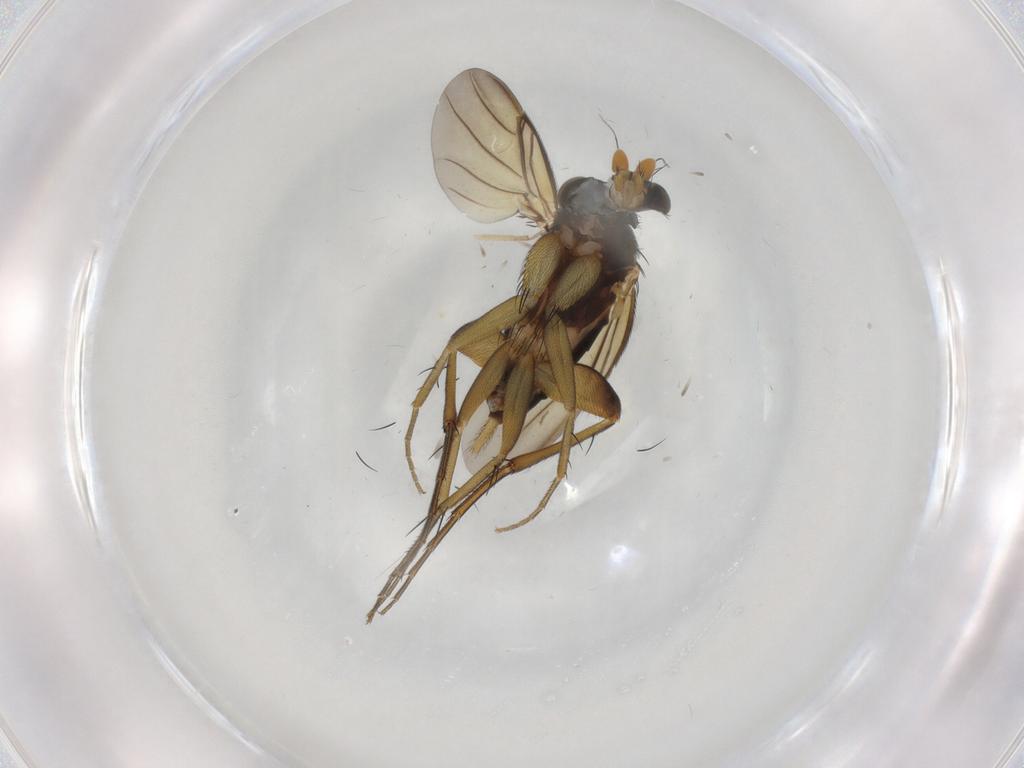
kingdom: Animalia
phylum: Arthropoda
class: Insecta
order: Diptera
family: Phoridae
